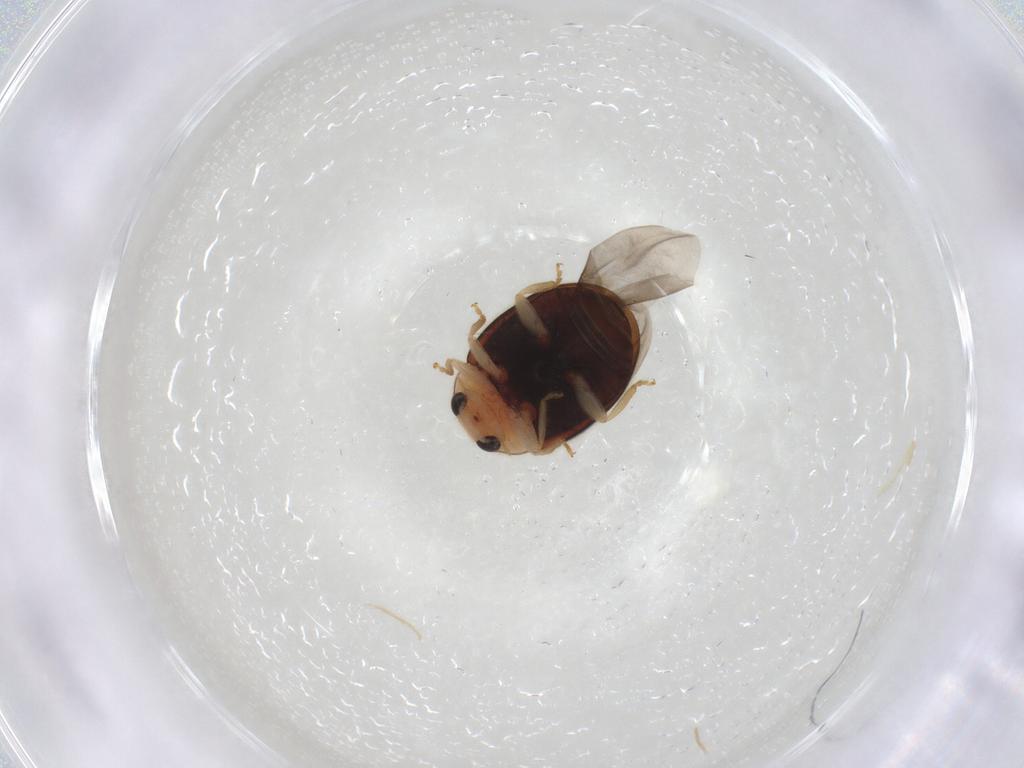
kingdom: Animalia
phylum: Arthropoda
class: Insecta
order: Coleoptera
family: Coccinellidae
